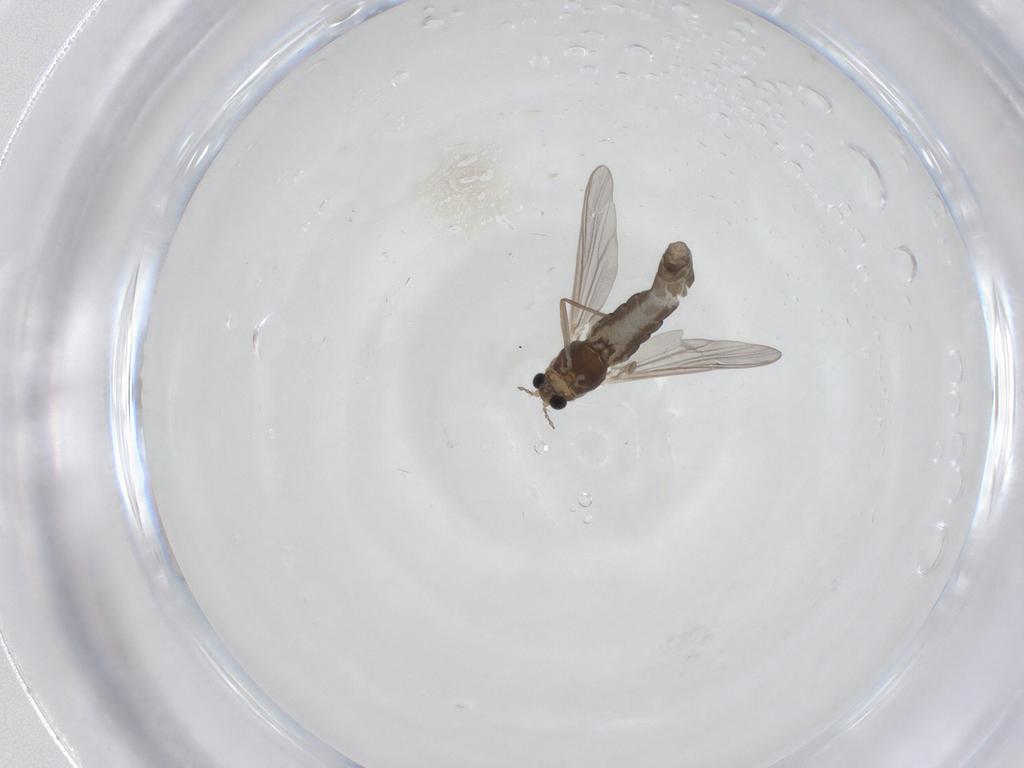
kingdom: Animalia
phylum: Arthropoda
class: Insecta
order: Diptera
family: Chironomidae
